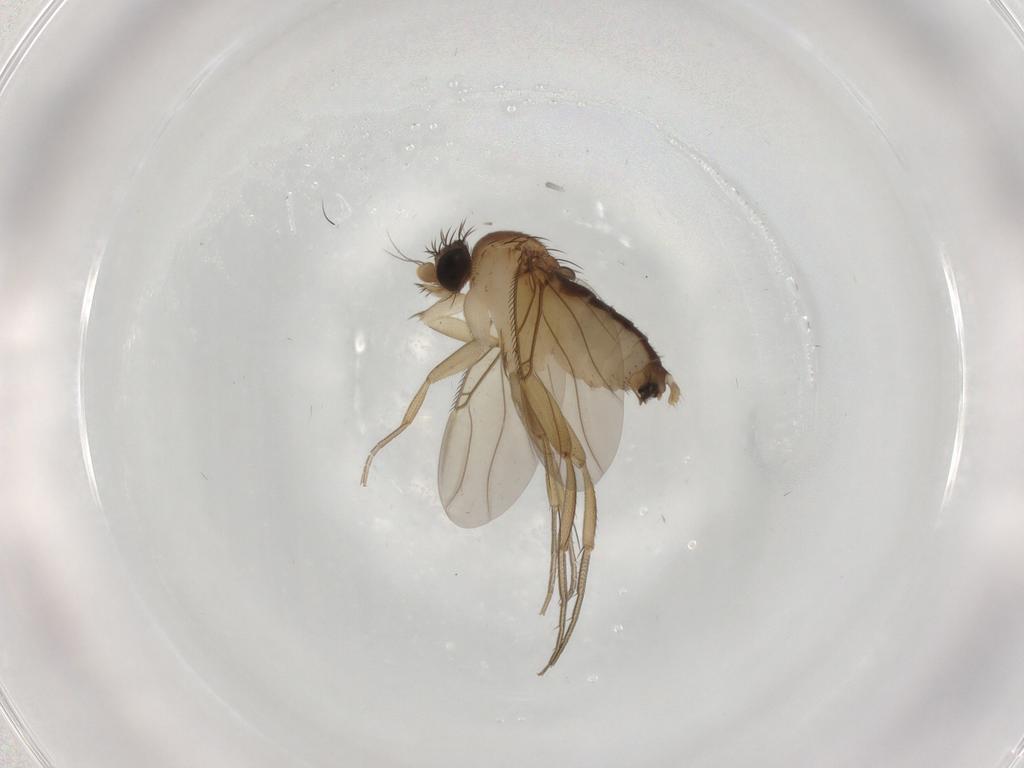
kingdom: Animalia
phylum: Arthropoda
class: Insecta
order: Diptera
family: Phoridae
